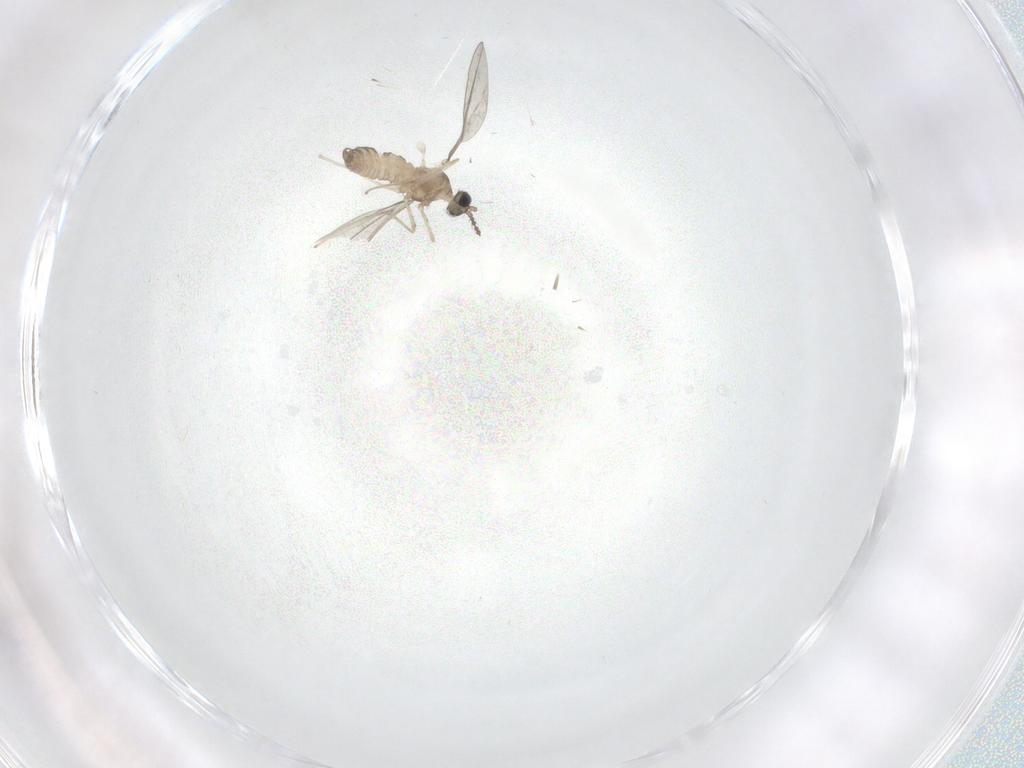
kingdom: Animalia
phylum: Arthropoda
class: Insecta
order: Diptera
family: Cecidomyiidae
